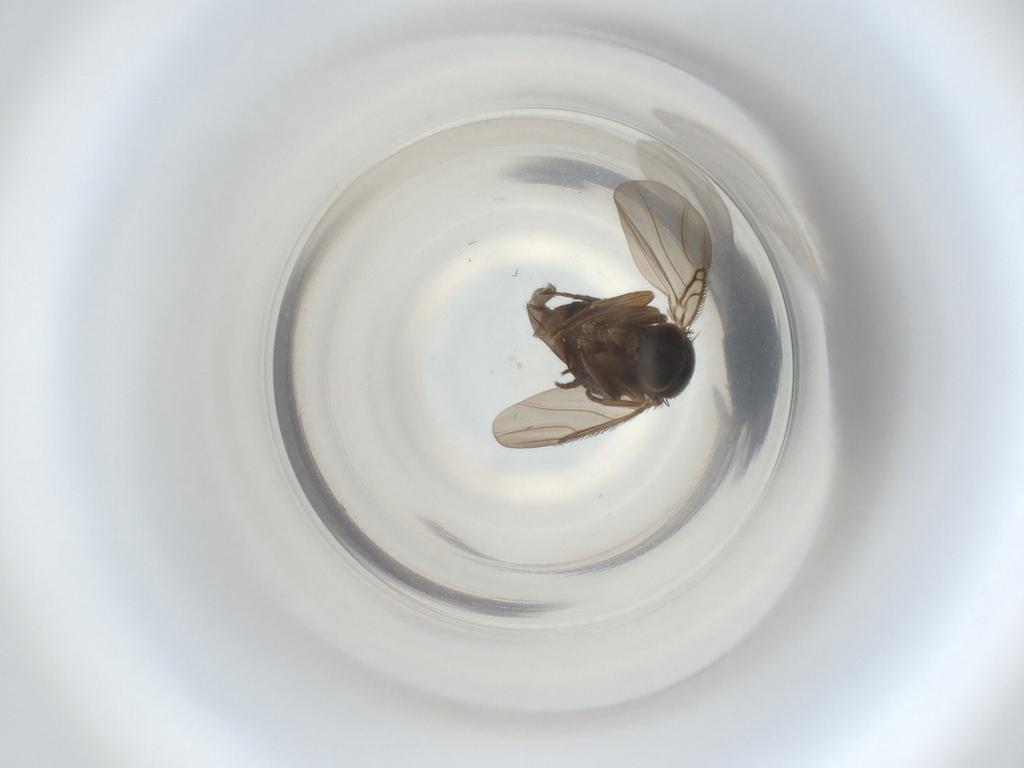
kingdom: Animalia
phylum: Arthropoda
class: Insecta
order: Diptera
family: Phoridae
